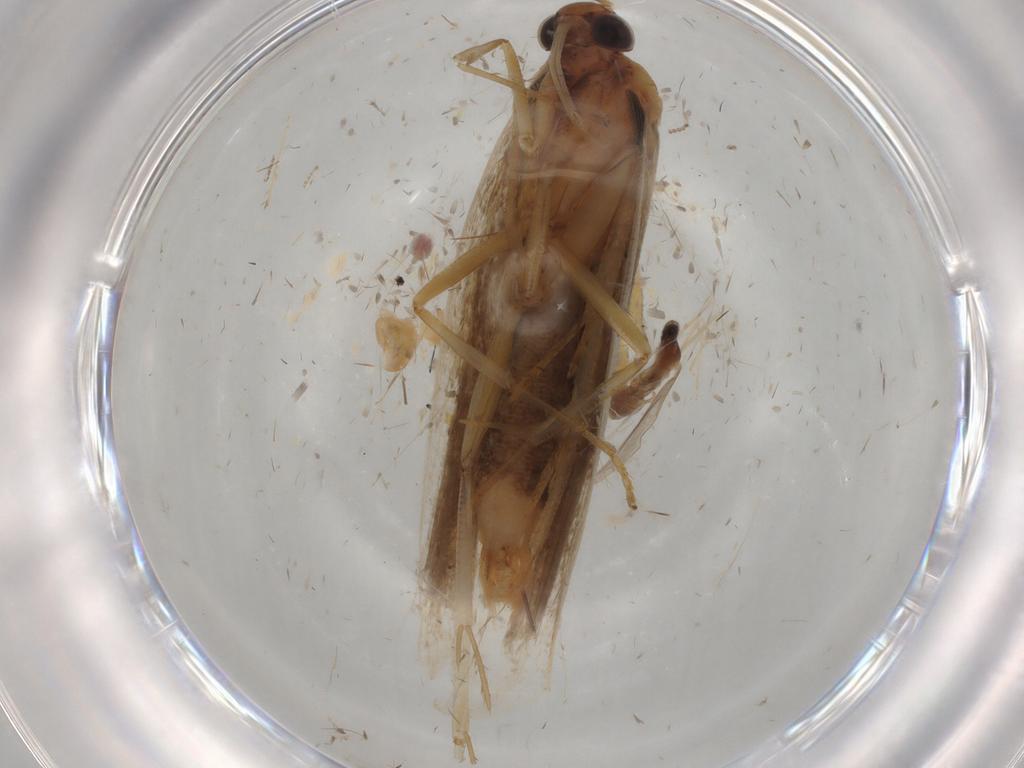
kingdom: Animalia
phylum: Arthropoda
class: Insecta
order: Lepidoptera
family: Gelechiidae
